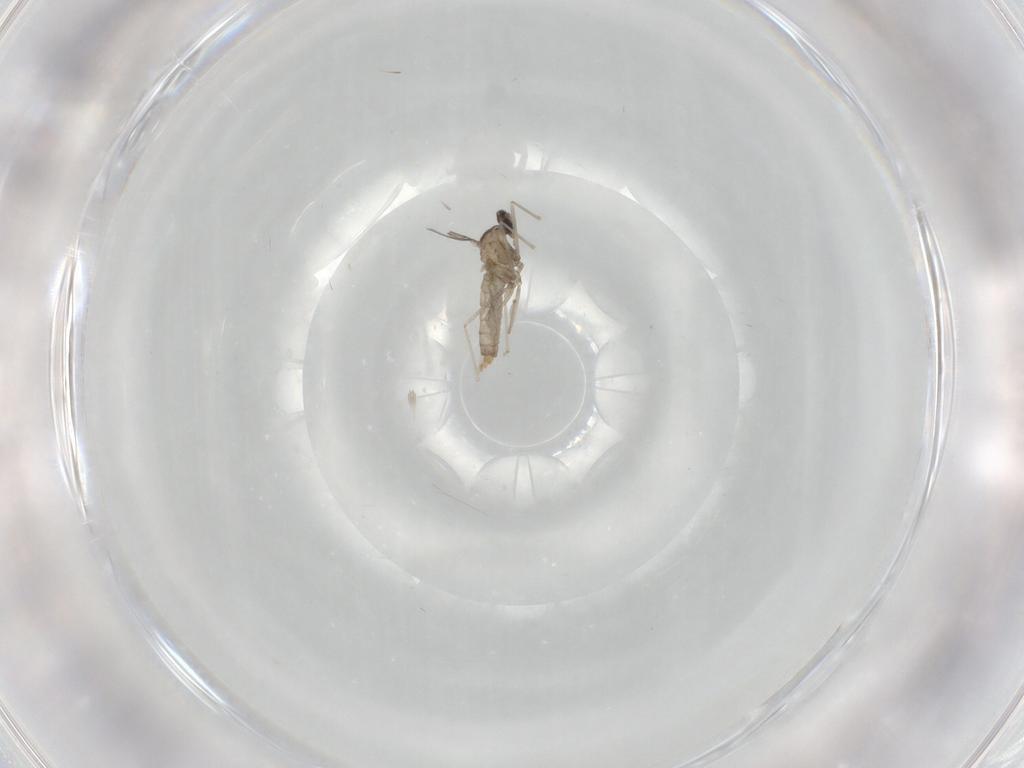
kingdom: Animalia
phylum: Arthropoda
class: Insecta
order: Diptera
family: Cecidomyiidae
